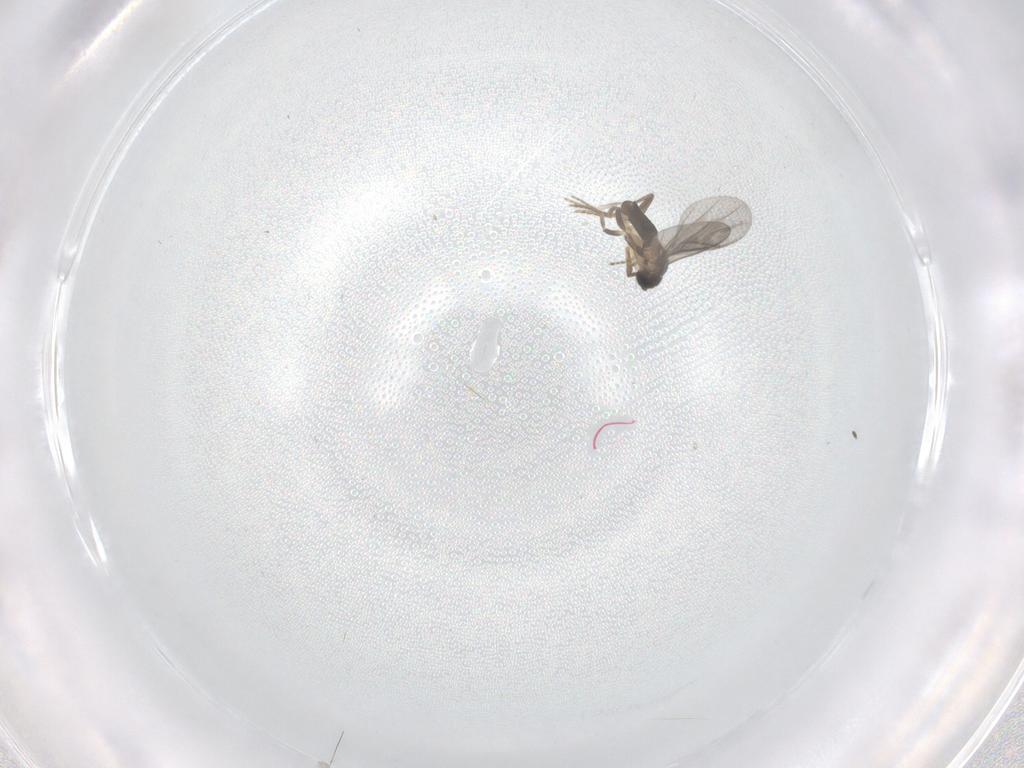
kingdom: Animalia
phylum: Arthropoda
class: Insecta
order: Diptera
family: Sciaridae
